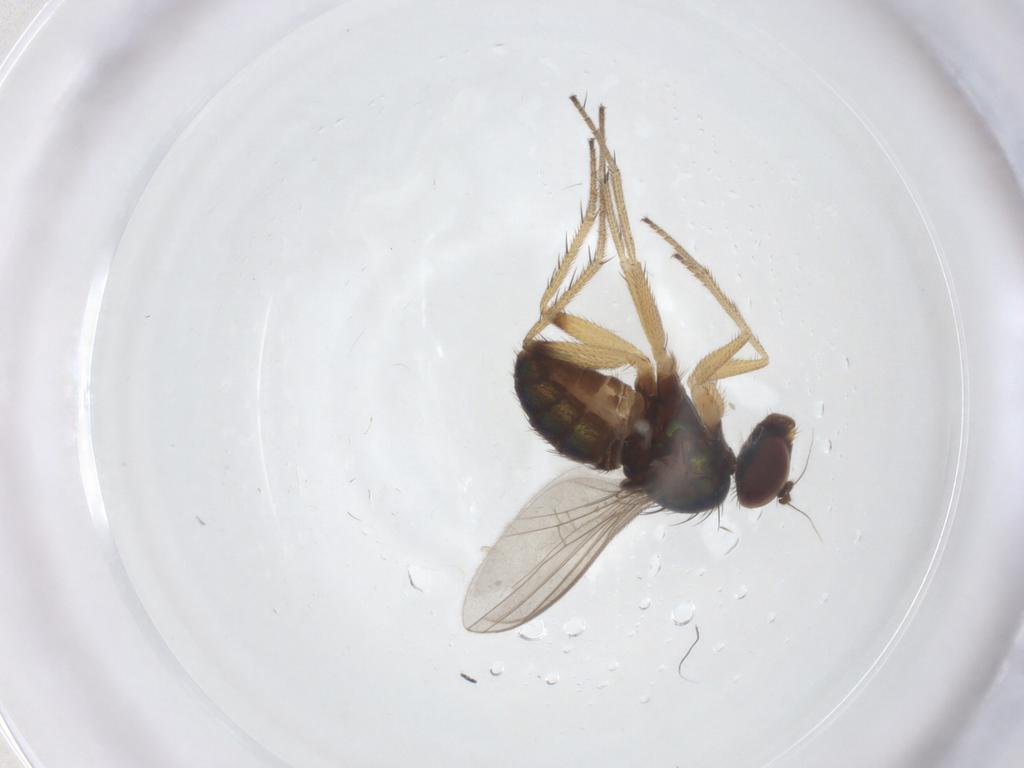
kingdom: Animalia
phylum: Arthropoda
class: Insecta
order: Diptera
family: Dolichopodidae
